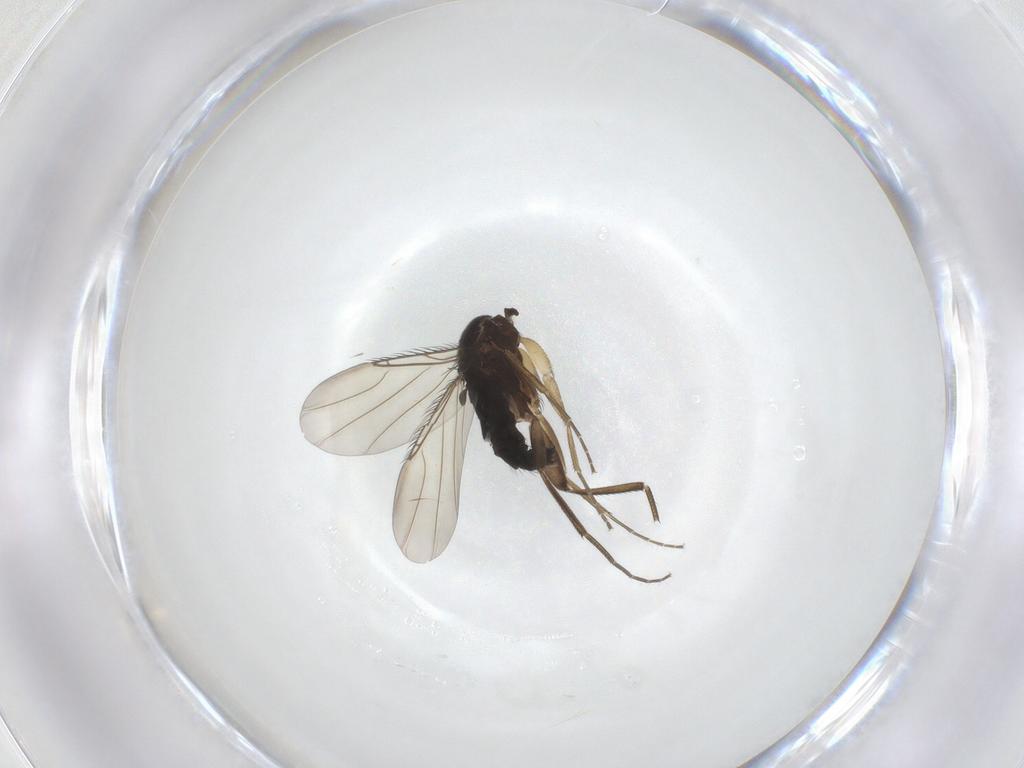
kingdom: Animalia
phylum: Arthropoda
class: Insecta
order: Diptera
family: Phoridae
